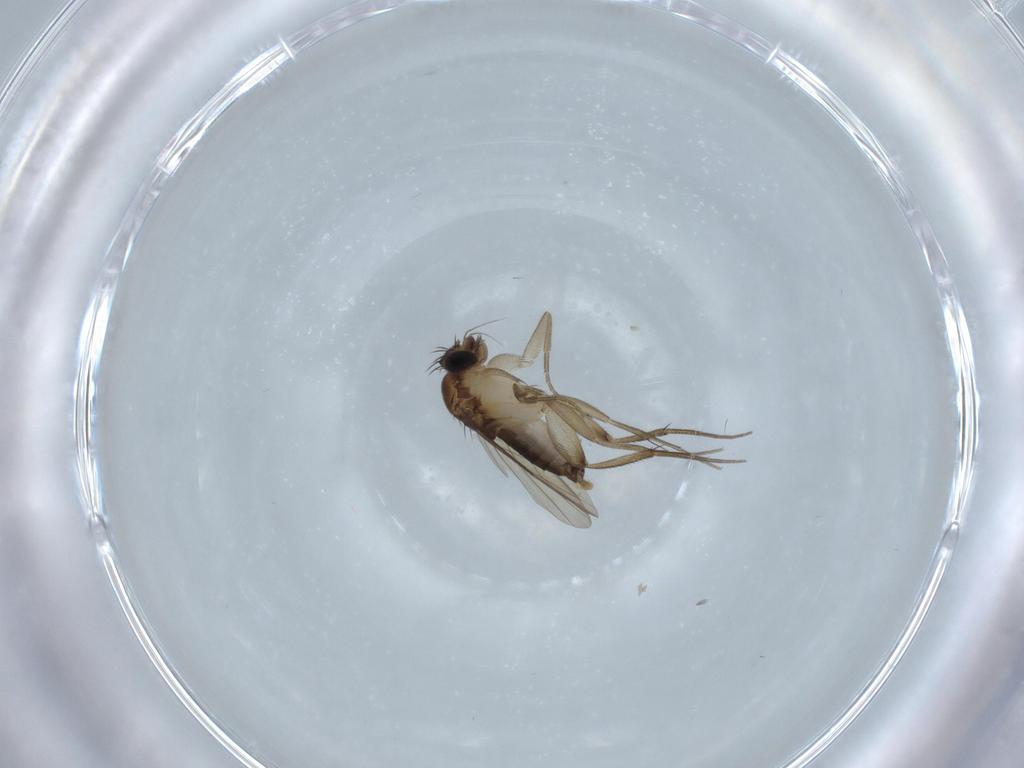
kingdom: Animalia
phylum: Arthropoda
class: Insecta
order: Diptera
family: Phoridae
